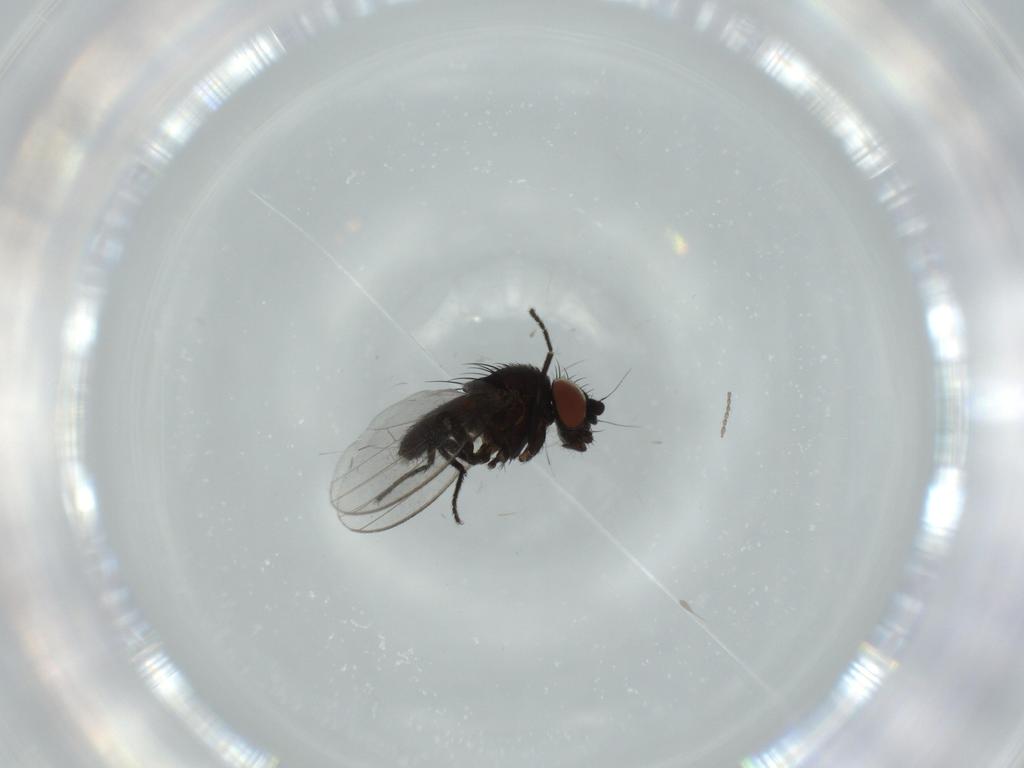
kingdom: Animalia
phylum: Arthropoda
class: Insecta
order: Diptera
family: Milichiidae
